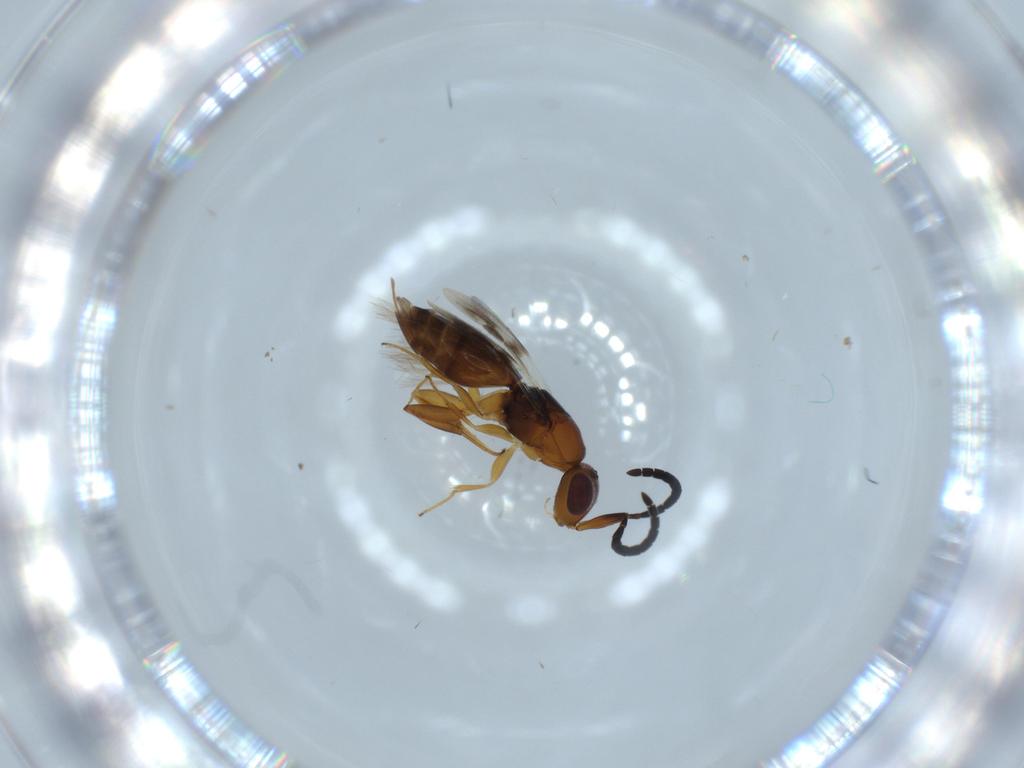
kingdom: Animalia
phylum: Arthropoda
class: Insecta
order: Hymenoptera
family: Megaspilidae
